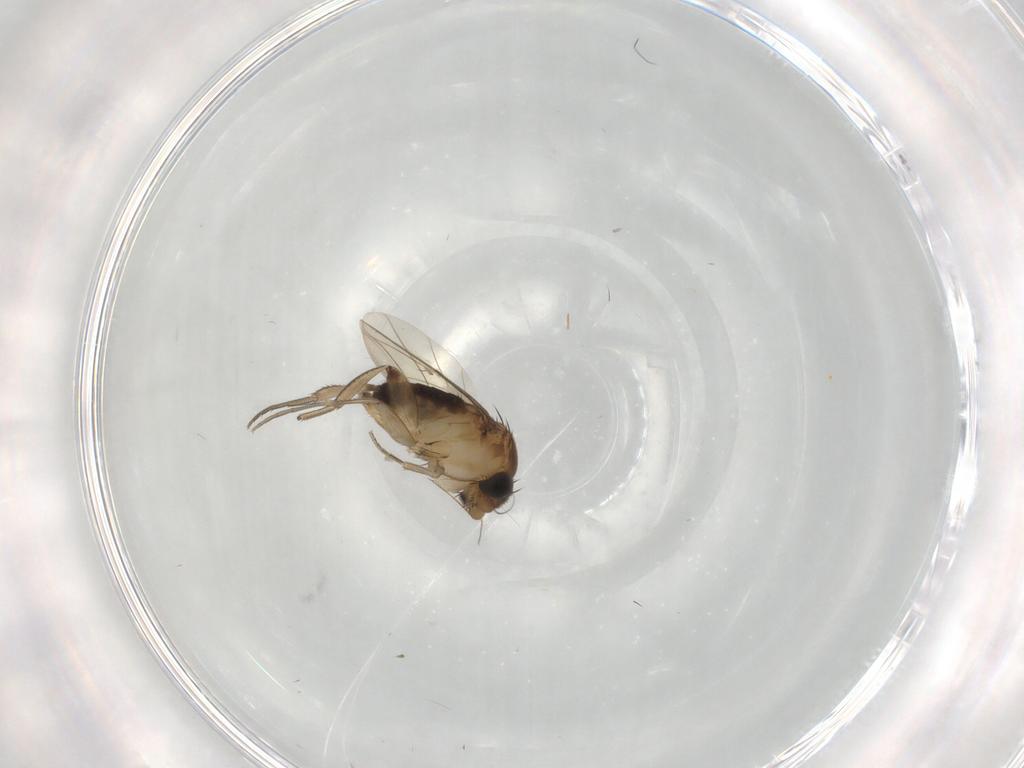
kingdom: Animalia
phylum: Arthropoda
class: Insecta
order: Diptera
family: Phoridae
